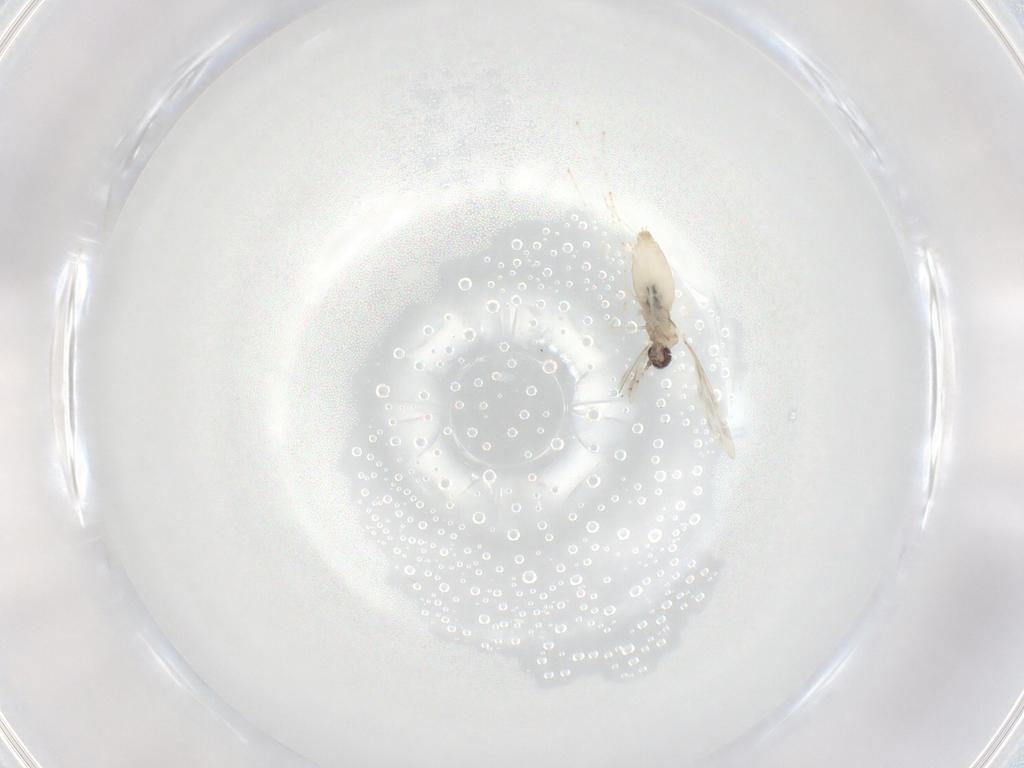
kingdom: Animalia
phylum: Arthropoda
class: Insecta
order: Diptera
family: Cecidomyiidae
